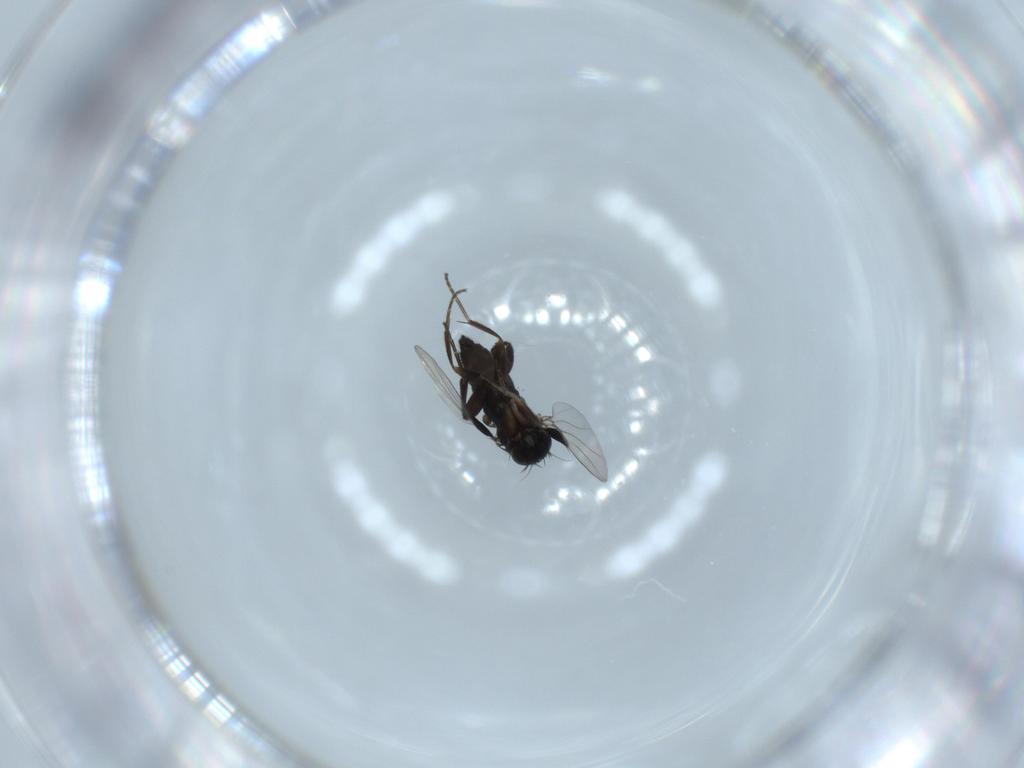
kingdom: Animalia
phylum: Arthropoda
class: Insecta
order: Diptera
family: Phoridae
